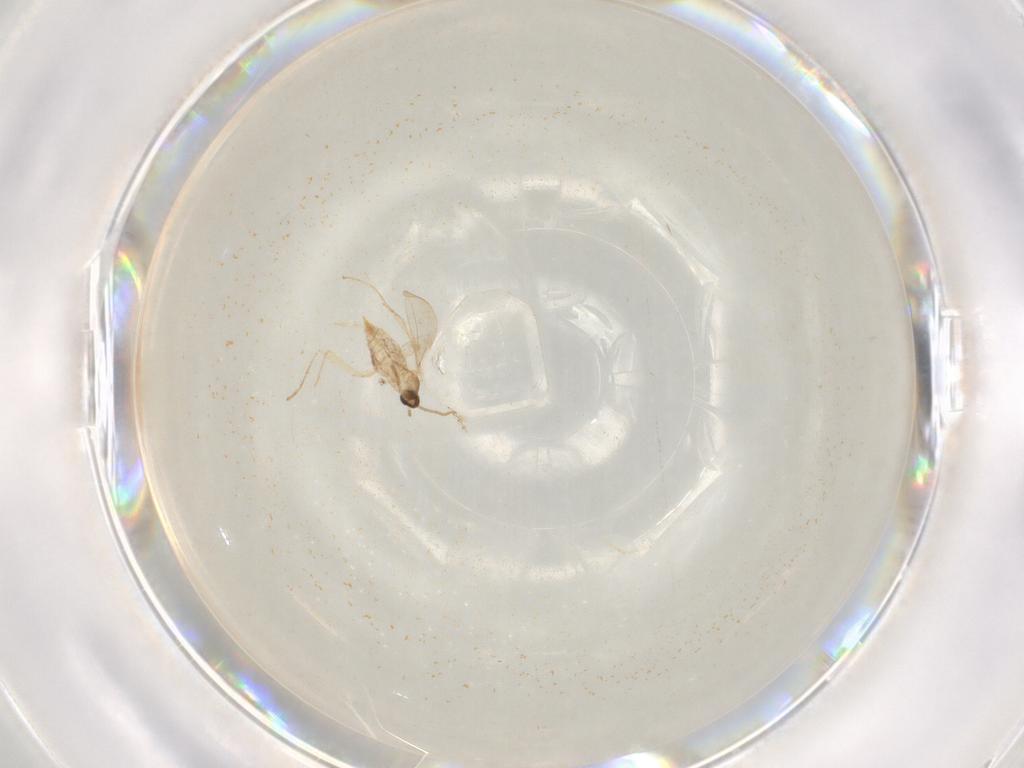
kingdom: Animalia
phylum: Arthropoda
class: Insecta
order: Diptera
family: Cecidomyiidae
